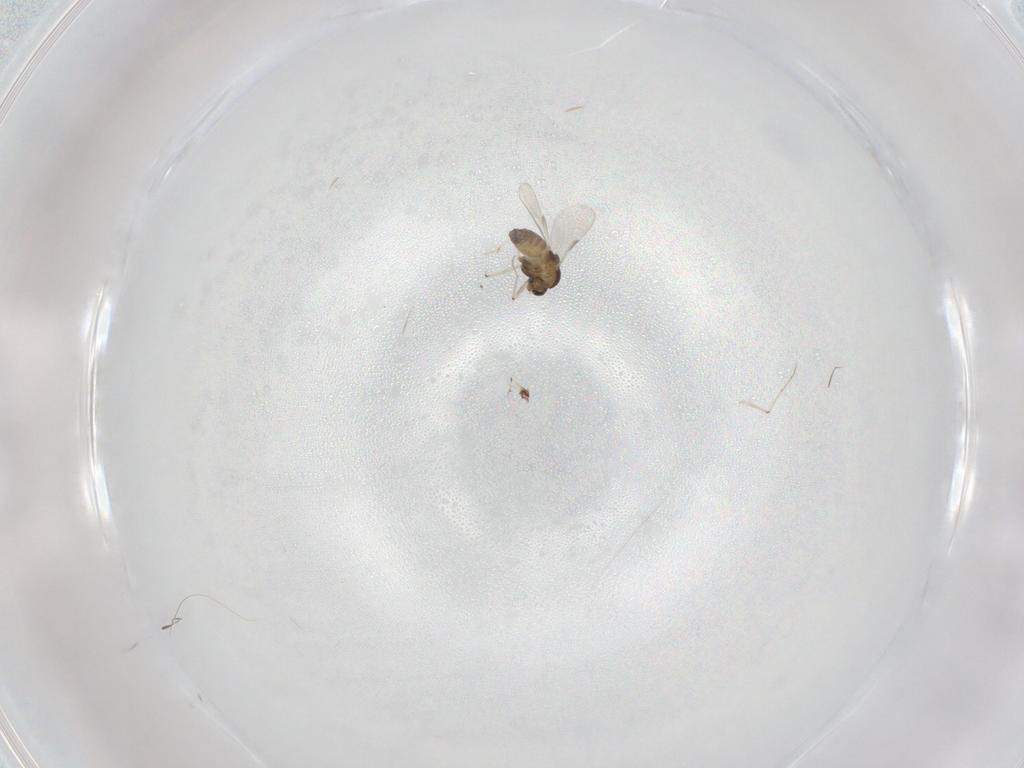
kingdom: Animalia
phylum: Arthropoda
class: Insecta
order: Diptera
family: Chironomidae
